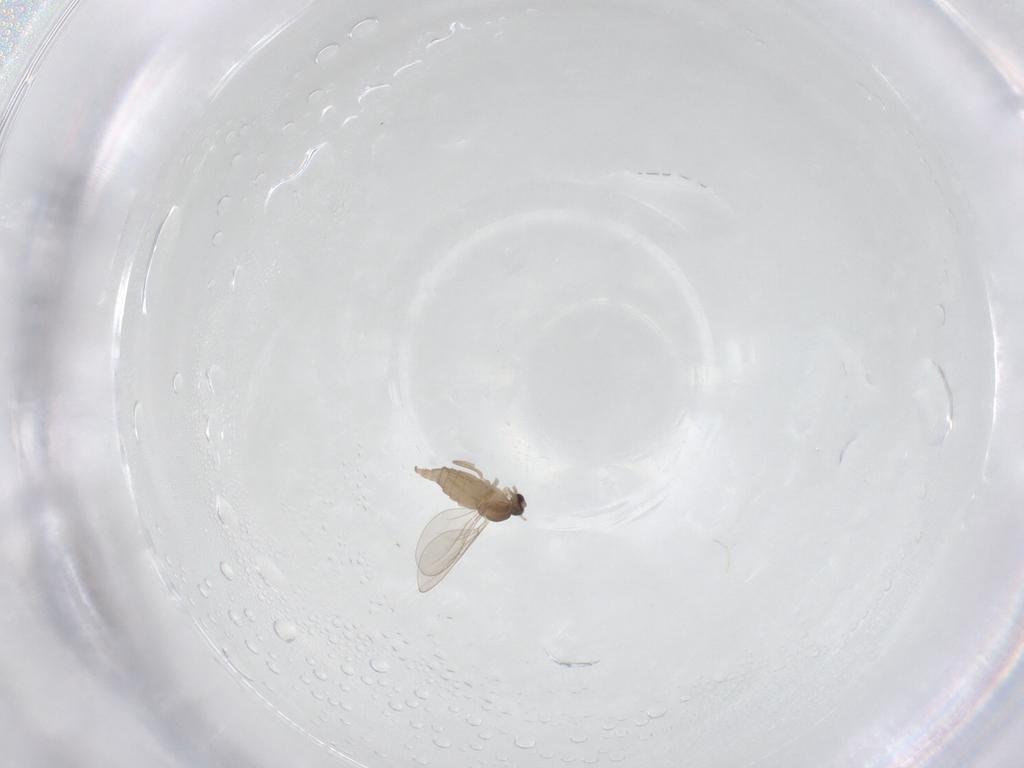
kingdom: Animalia
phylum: Arthropoda
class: Insecta
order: Diptera
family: Cecidomyiidae
